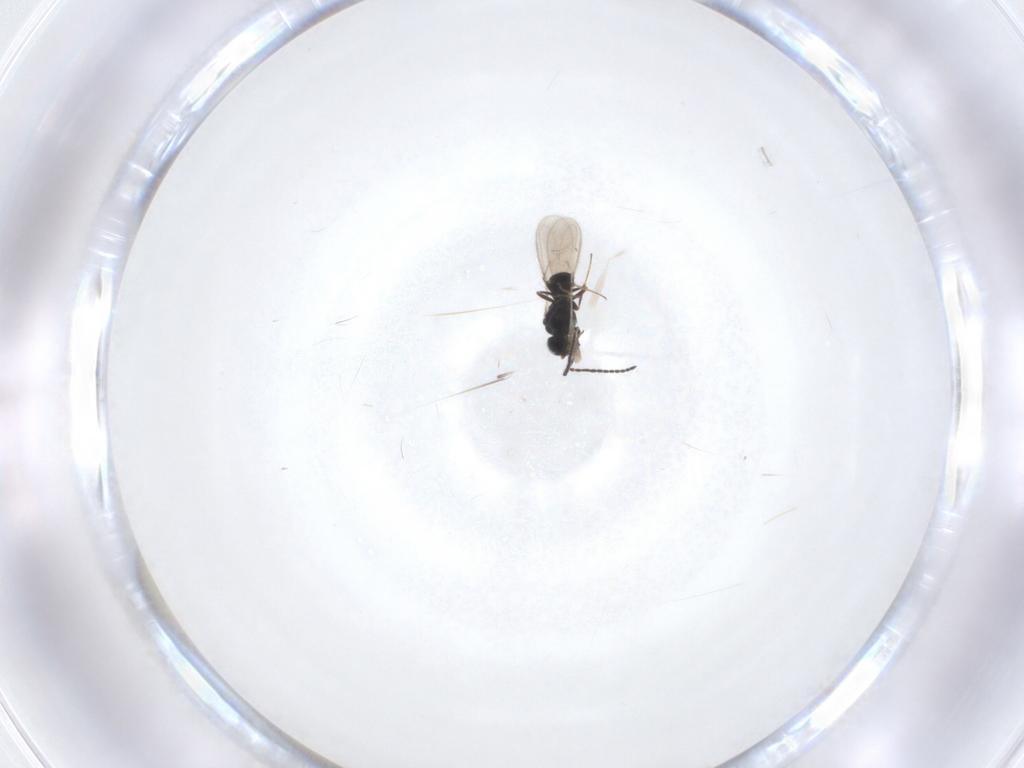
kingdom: Animalia
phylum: Arthropoda
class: Insecta
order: Hymenoptera
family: Scelionidae
